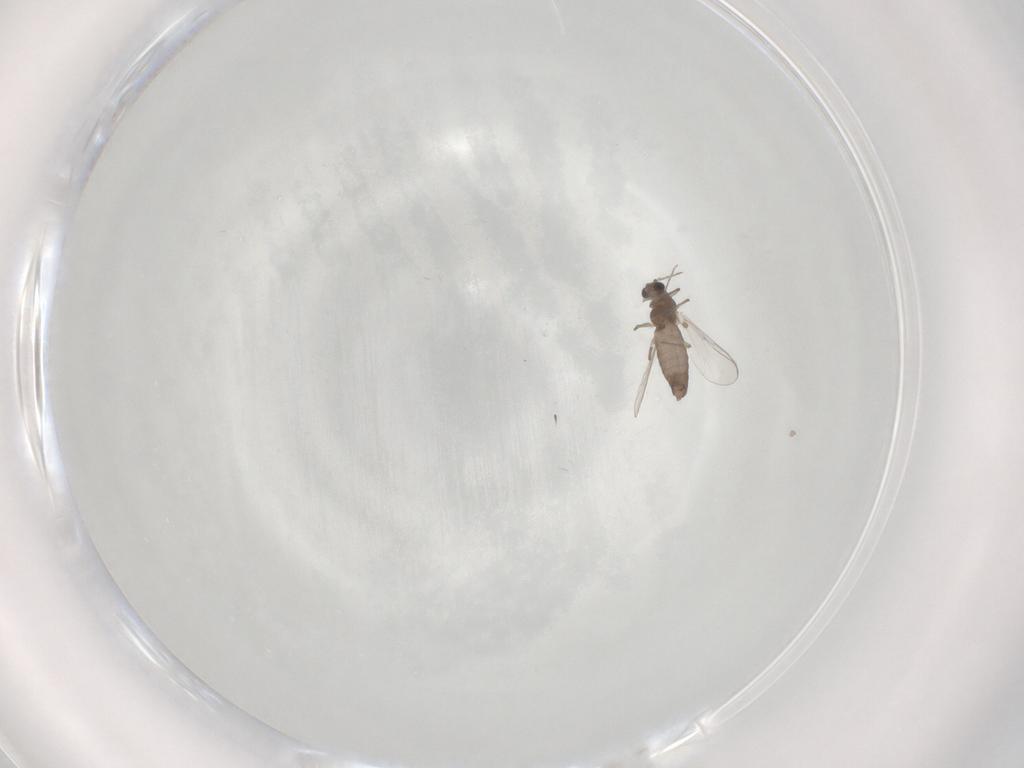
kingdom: Animalia
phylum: Arthropoda
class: Insecta
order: Diptera
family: Chironomidae
